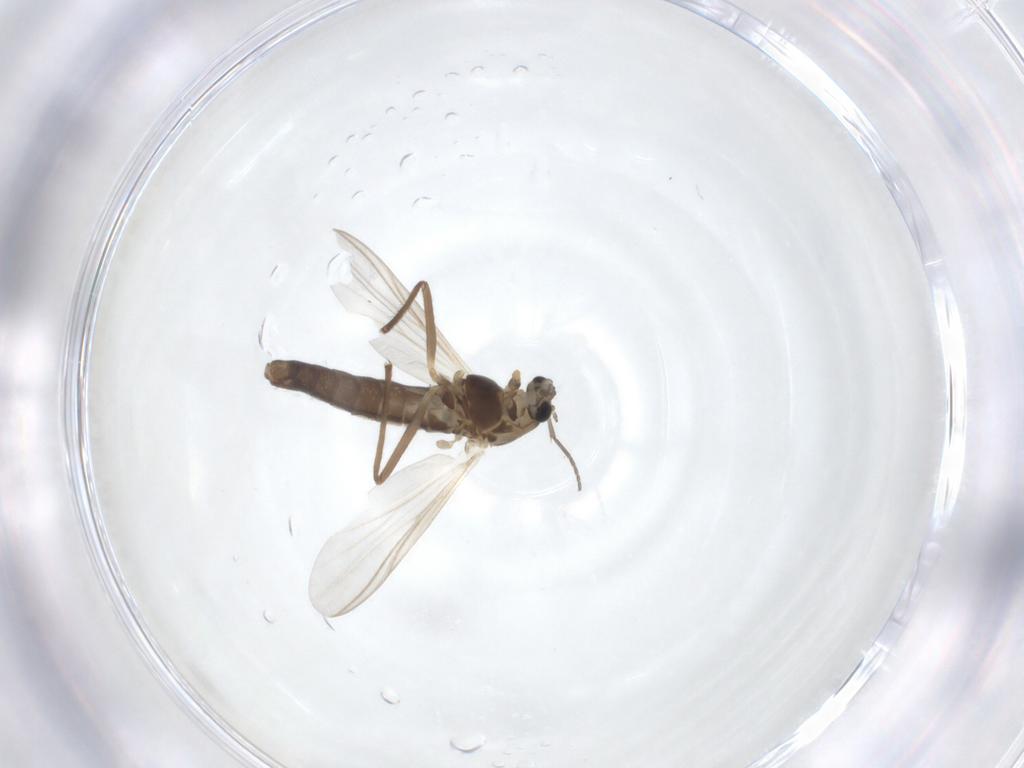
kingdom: Animalia
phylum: Arthropoda
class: Insecta
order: Diptera
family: Chironomidae
